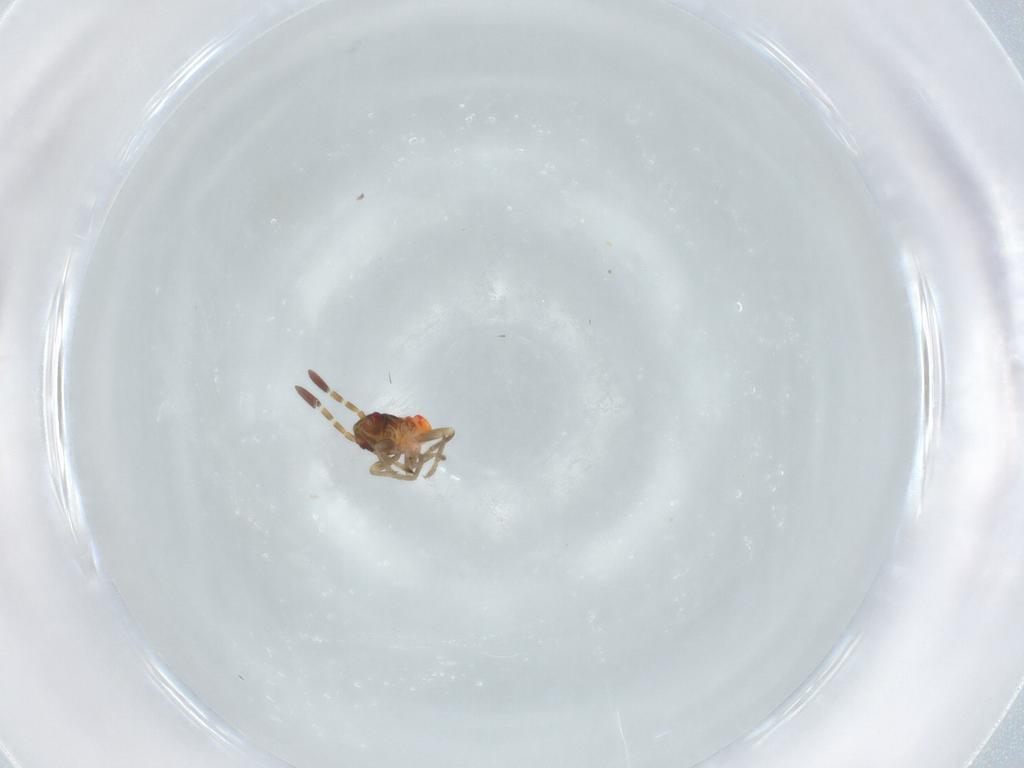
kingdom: Animalia
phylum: Arthropoda
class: Insecta
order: Hemiptera
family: Rhyparochromidae
